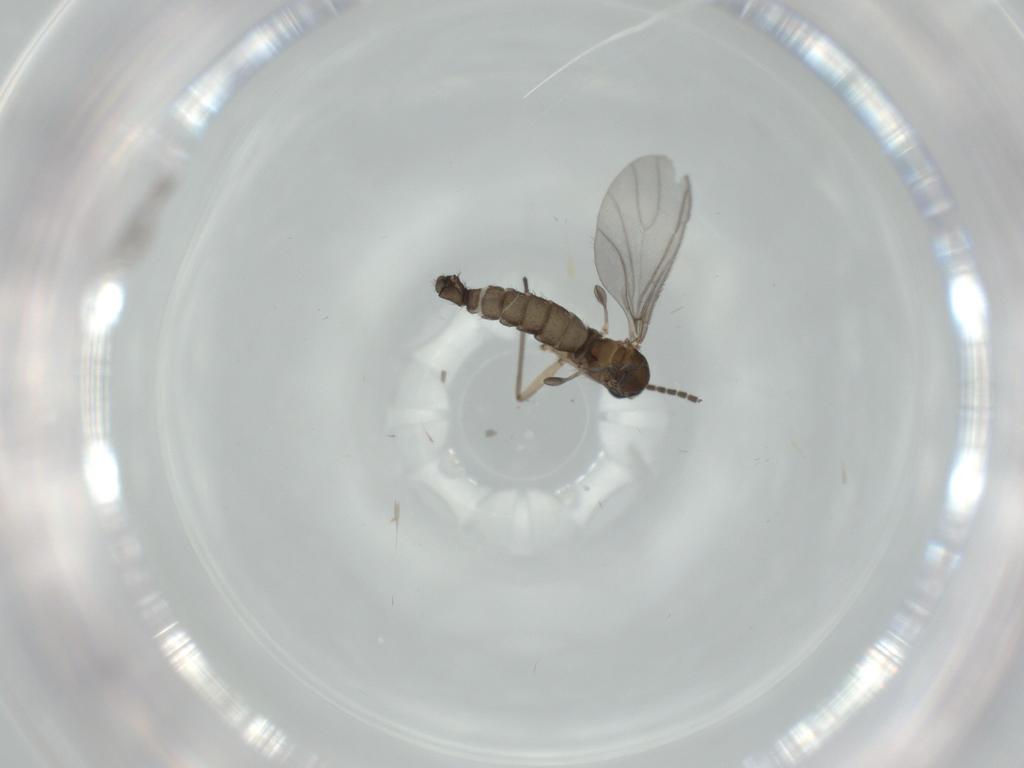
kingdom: Animalia
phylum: Arthropoda
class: Insecta
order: Diptera
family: Therevidae
